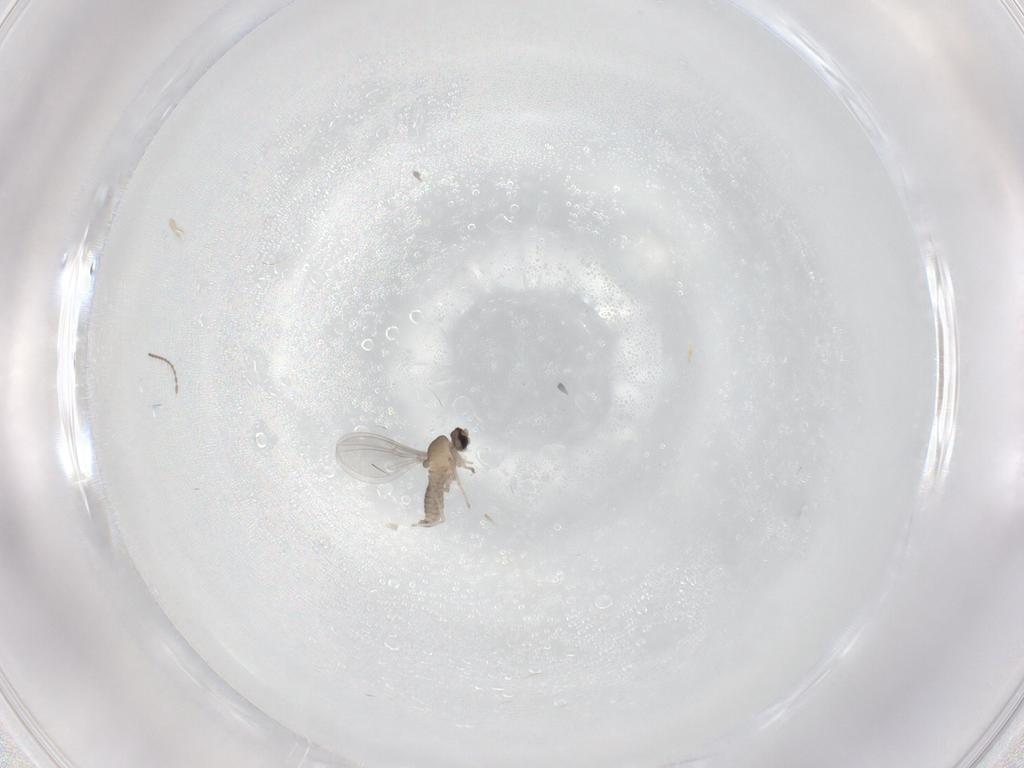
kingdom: Animalia
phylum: Arthropoda
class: Insecta
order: Diptera
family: Cecidomyiidae
